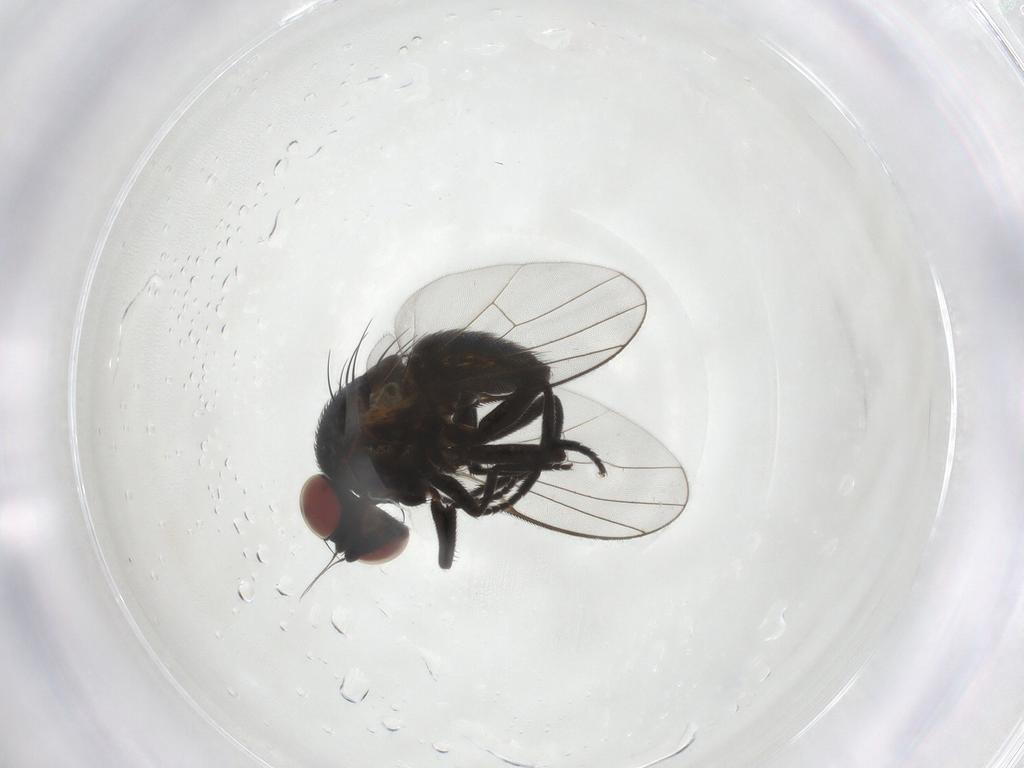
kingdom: Animalia
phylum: Arthropoda
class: Insecta
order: Diptera
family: Agromyzidae
